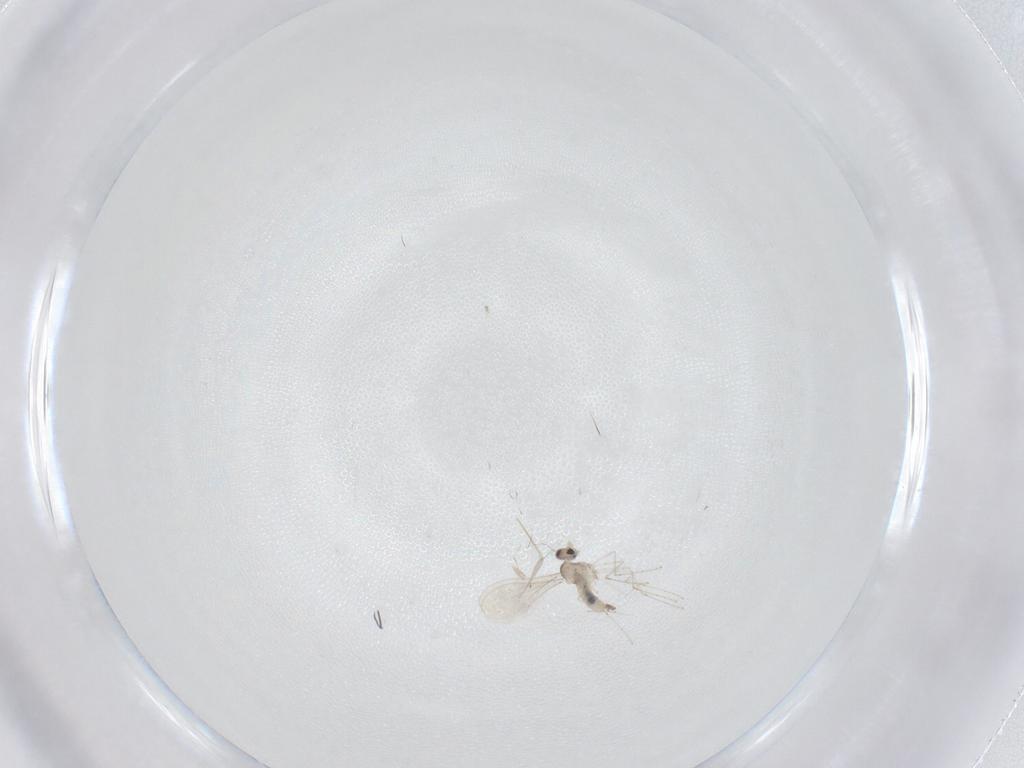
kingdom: Animalia
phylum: Arthropoda
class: Insecta
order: Diptera
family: Cecidomyiidae
